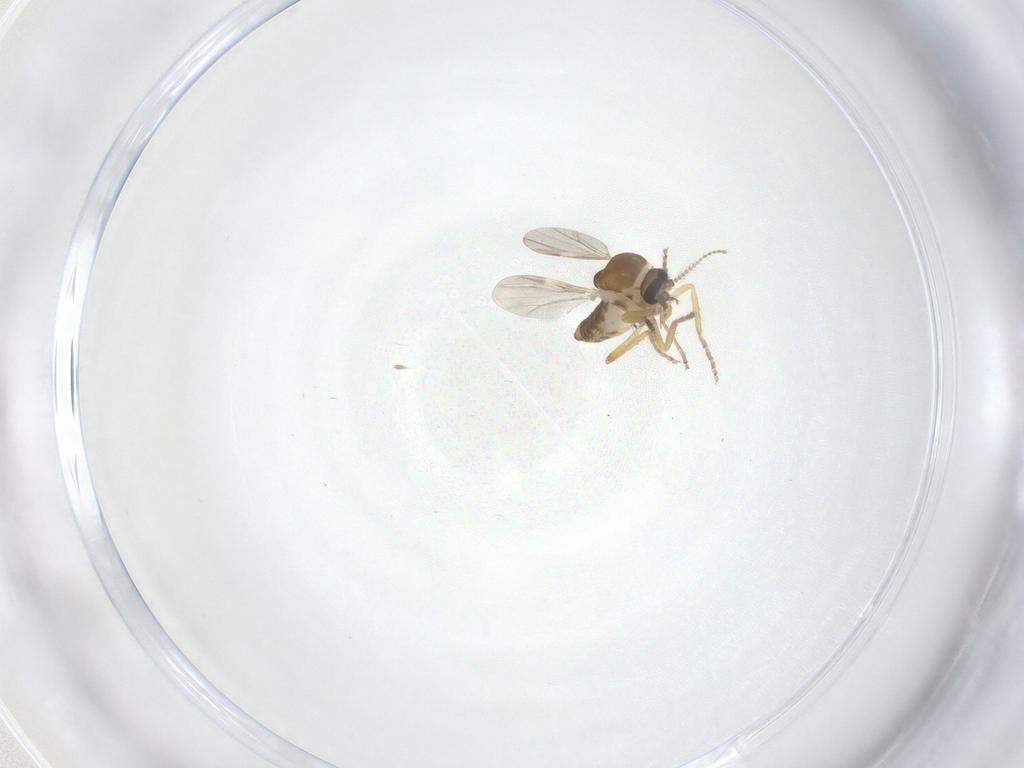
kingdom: Animalia
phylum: Arthropoda
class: Insecta
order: Diptera
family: Ceratopogonidae
